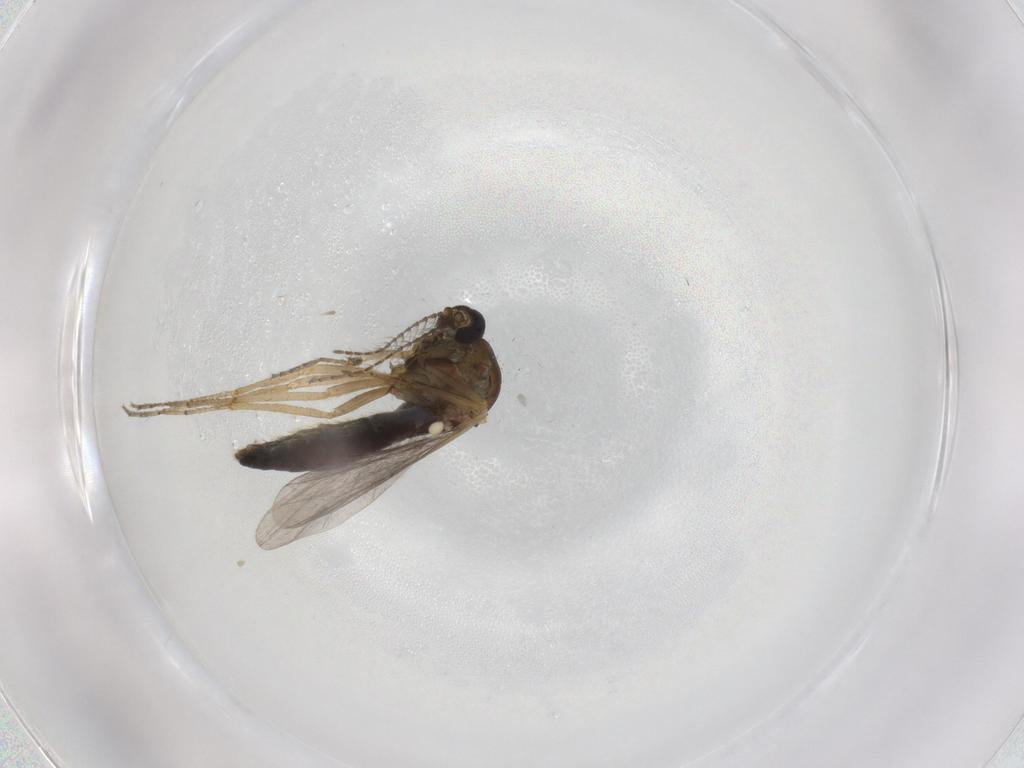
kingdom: Animalia
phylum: Arthropoda
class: Insecta
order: Diptera
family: Ceratopogonidae
